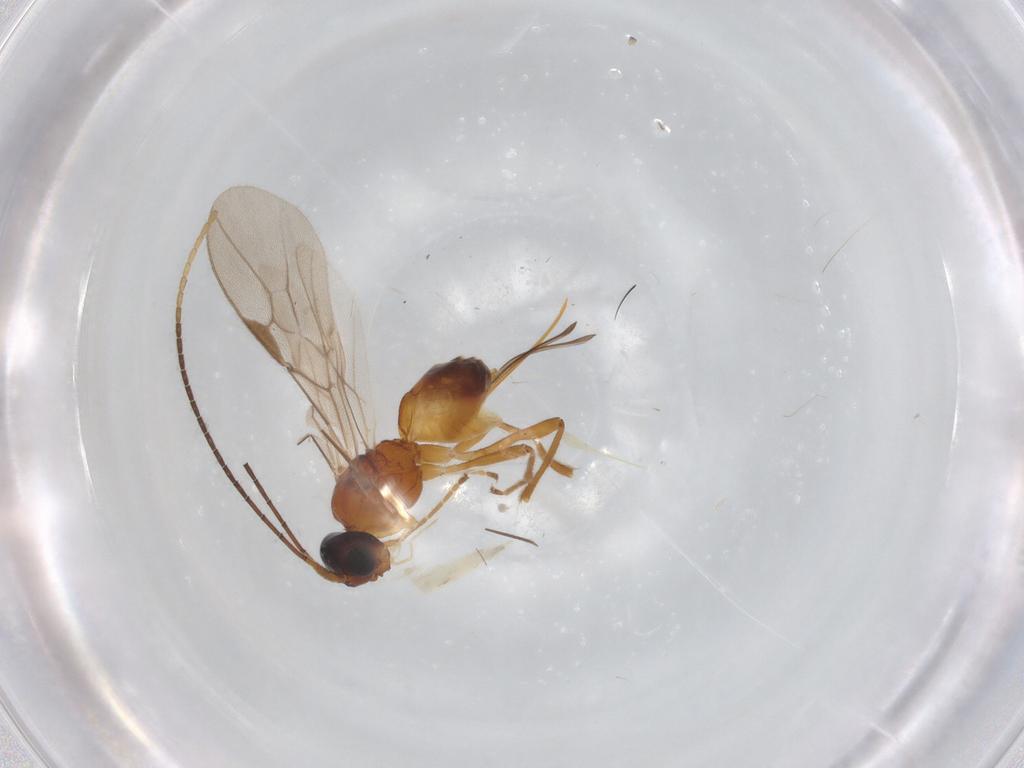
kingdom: Animalia
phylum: Arthropoda
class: Insecta
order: Hymenoptera
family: Braconidae
